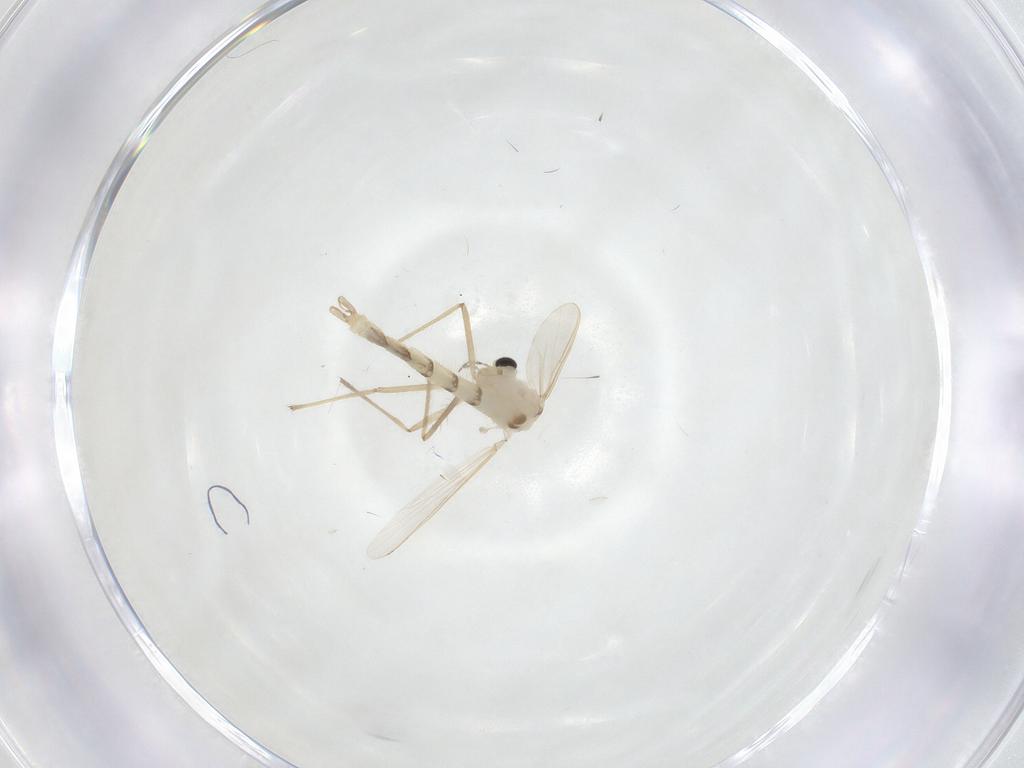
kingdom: Animalia
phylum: Arthropoda
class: Insecta
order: Diptera
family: Chironomidae
